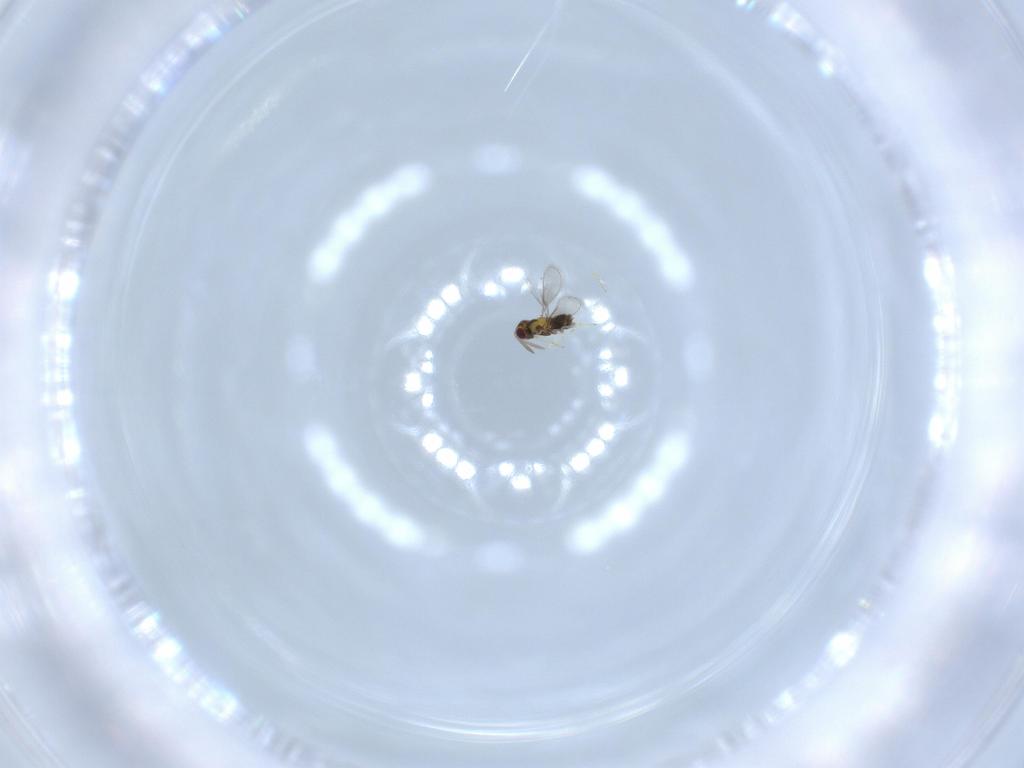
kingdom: Animalia
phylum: Arthropoda
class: Insecta
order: Hymenoptera
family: Aphelinidae
